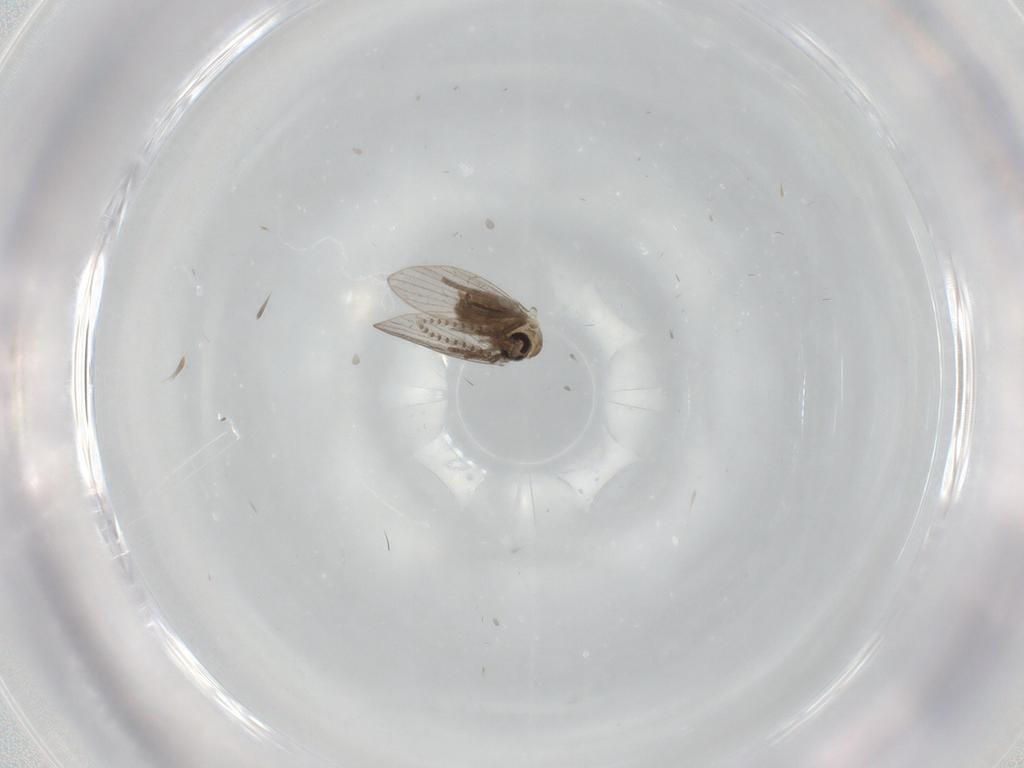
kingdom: Animalia
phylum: Arthropoda
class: Insecta
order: Diptera
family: Psychodidae
